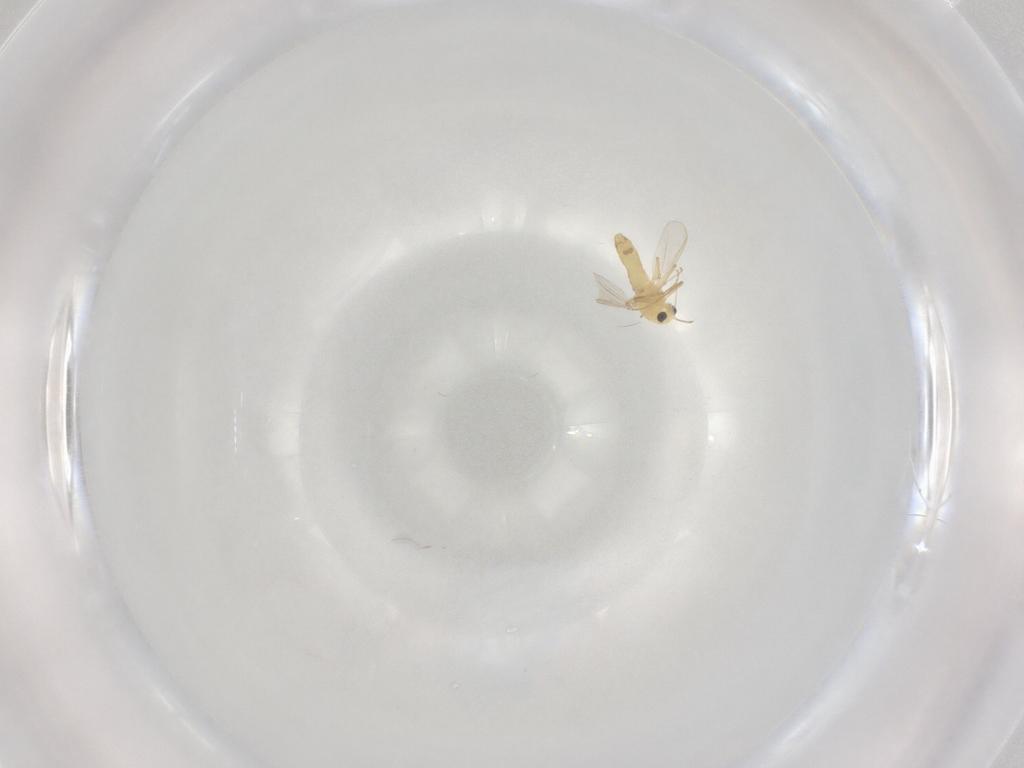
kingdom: Animalia
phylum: Arthropoda
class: Insecta
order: Diptera
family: Chironomidae
